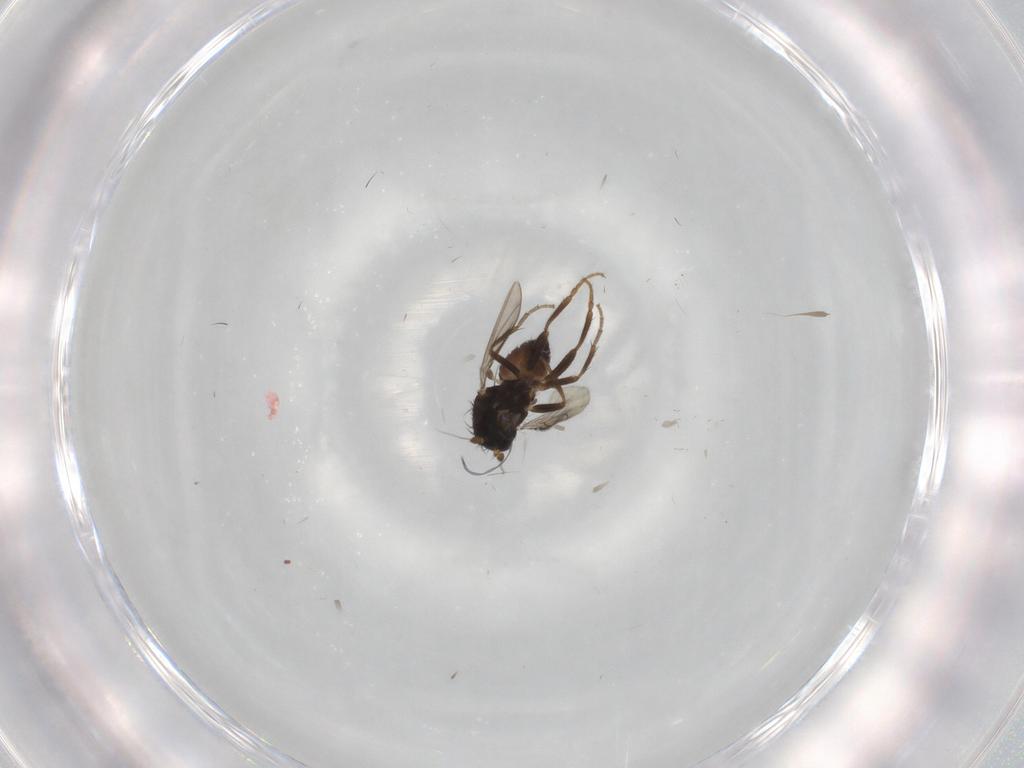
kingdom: Animalia
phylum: Arthropoda
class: Insecta
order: Diptera
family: Sphaeroceridae
